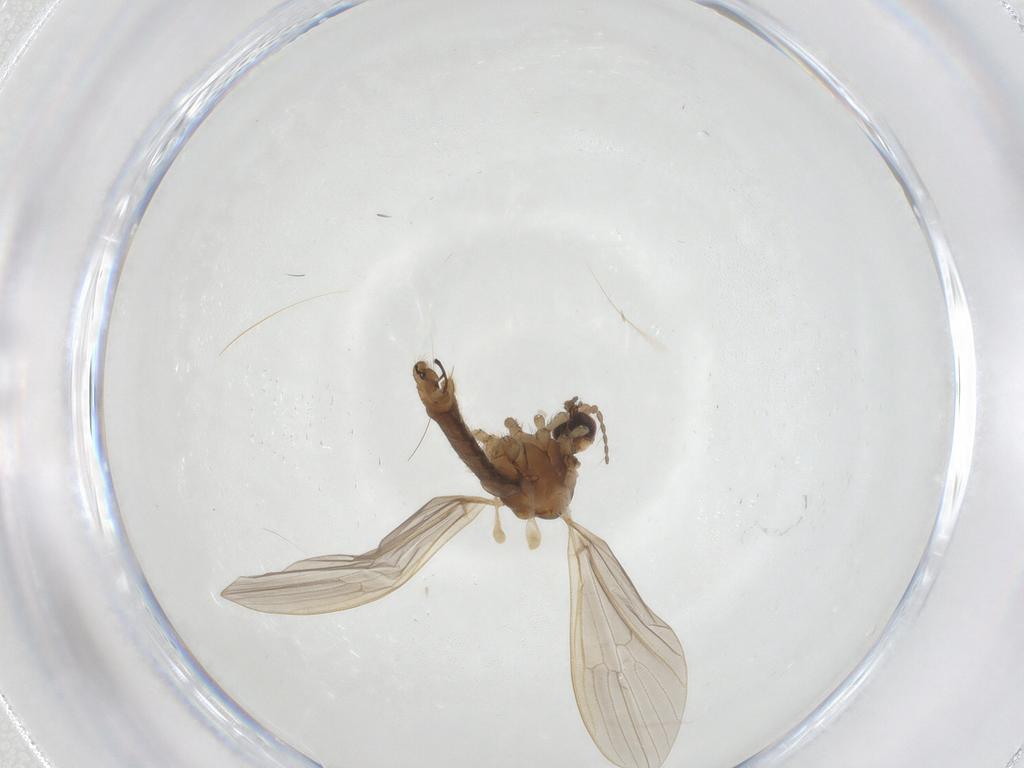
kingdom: Animalia
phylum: Arthropoda
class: Insecta
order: Diptera
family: Limoniidae
